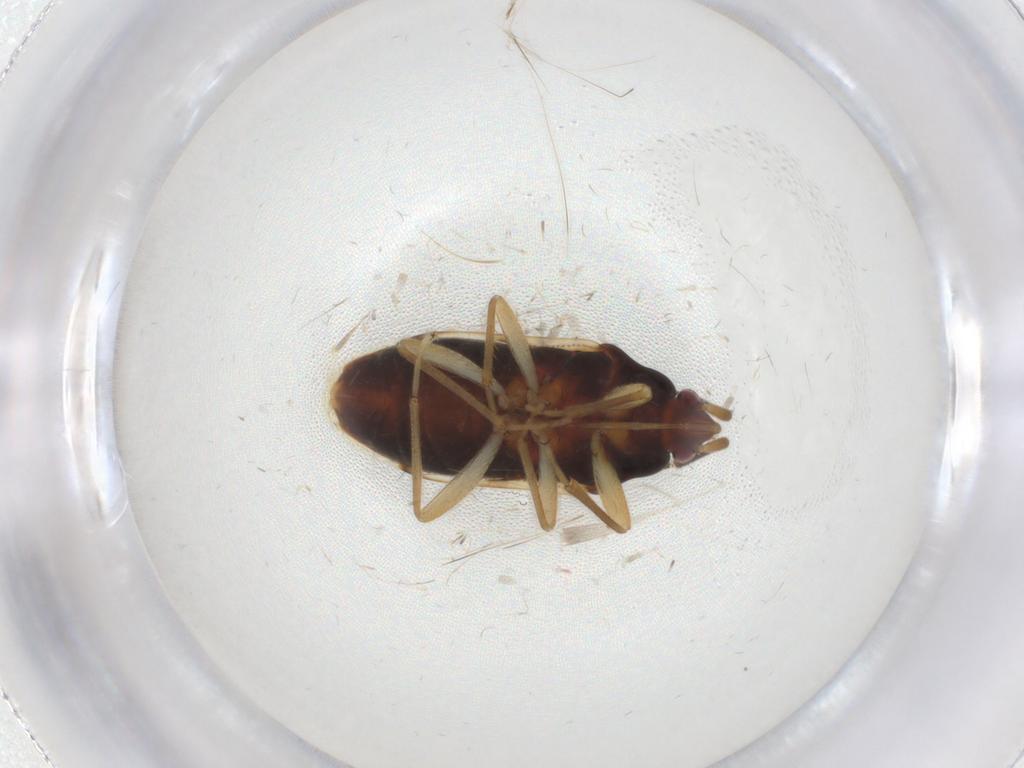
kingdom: Animalia
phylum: Arthropoda
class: Insecta
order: Hemiptera
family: Rhyparochromidae
